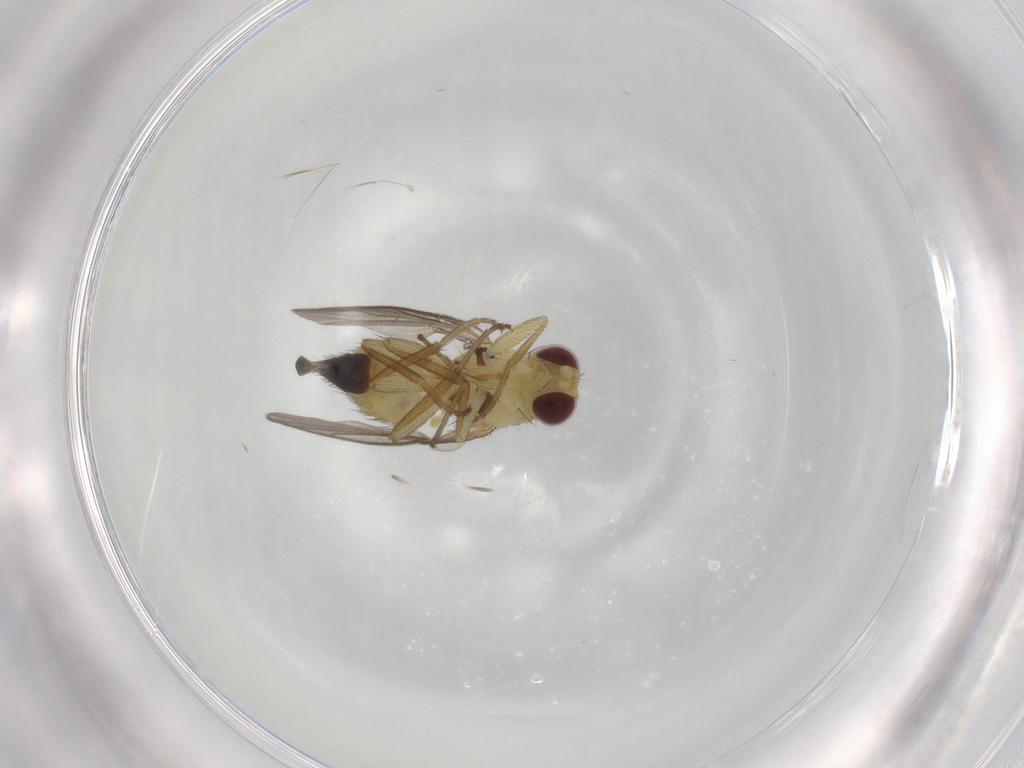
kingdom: Animalia
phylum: Arthropoda
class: Insecta
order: Diptera
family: Agromyzidae
